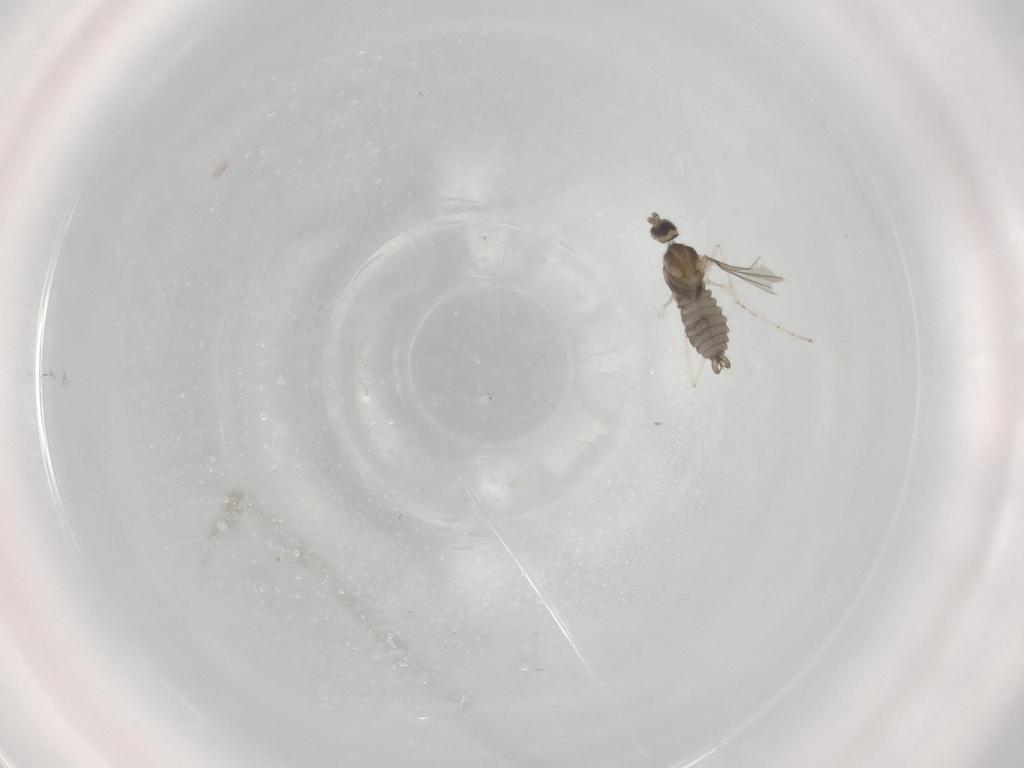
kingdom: Animalia
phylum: Arthropoda
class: Insecta
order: Diptera
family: Cecidomyiidae
